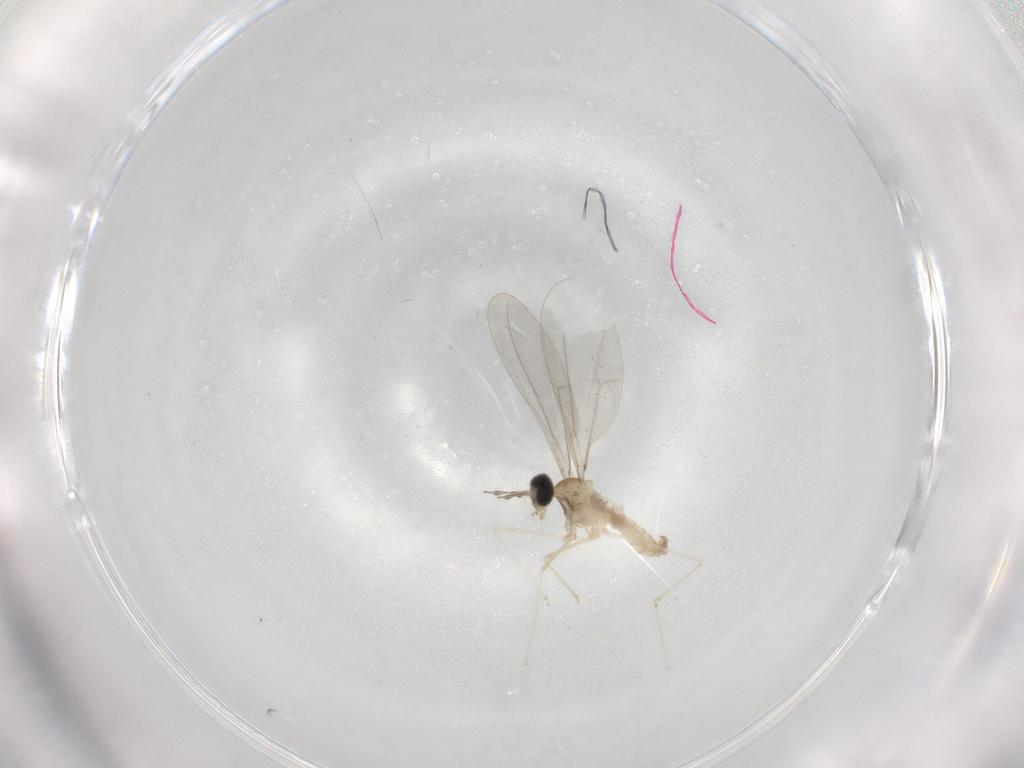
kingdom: Animalia
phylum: Arthropoda
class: Insecta
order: Diptera
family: Cecidomyiidae
